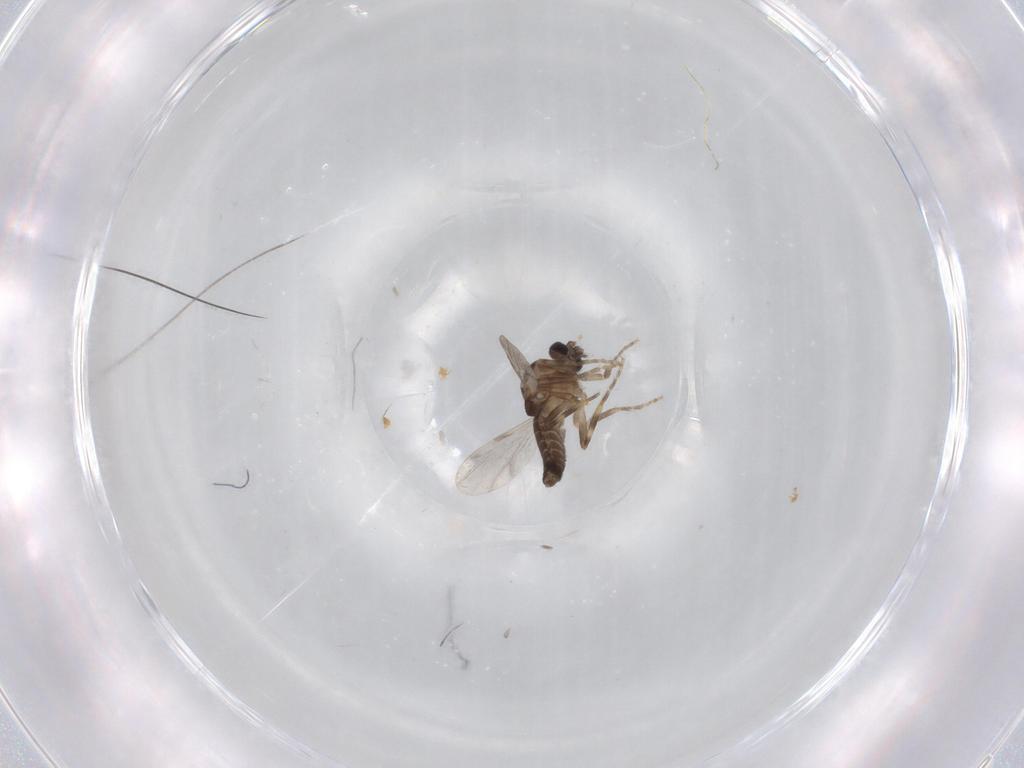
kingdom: Animalia
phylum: Arthropoda
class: Insecta
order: Diptera
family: Ceratopogonidae
